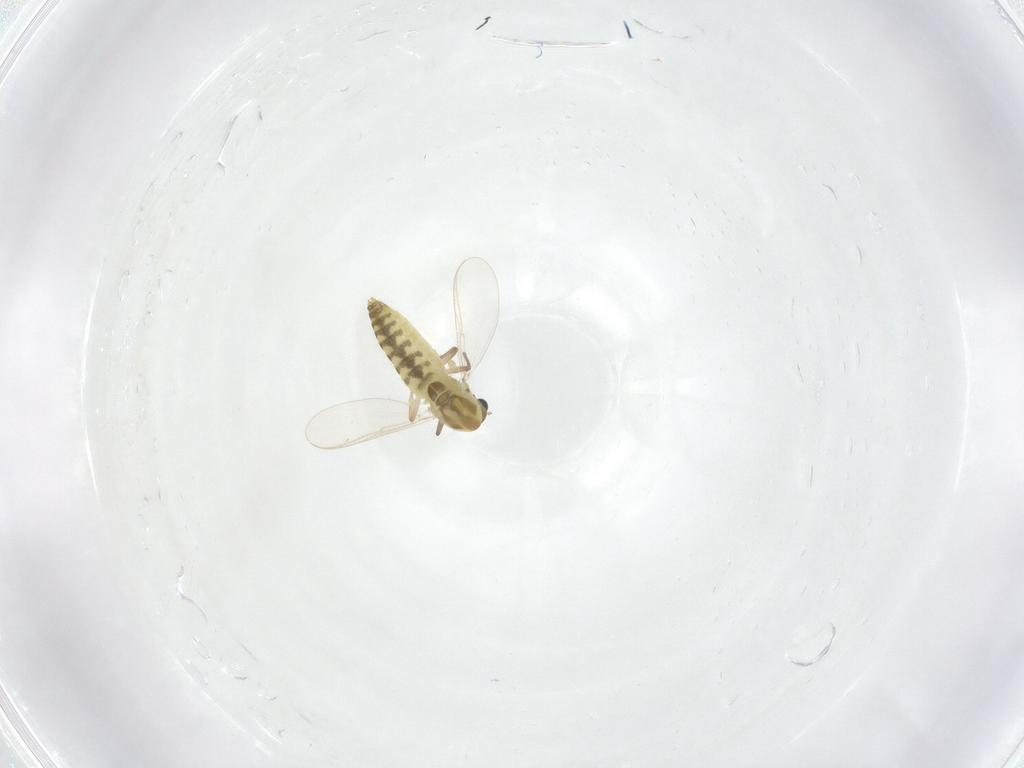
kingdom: Animalia
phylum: Arthropoda
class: Insecta
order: Diptera
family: Chironomidae
